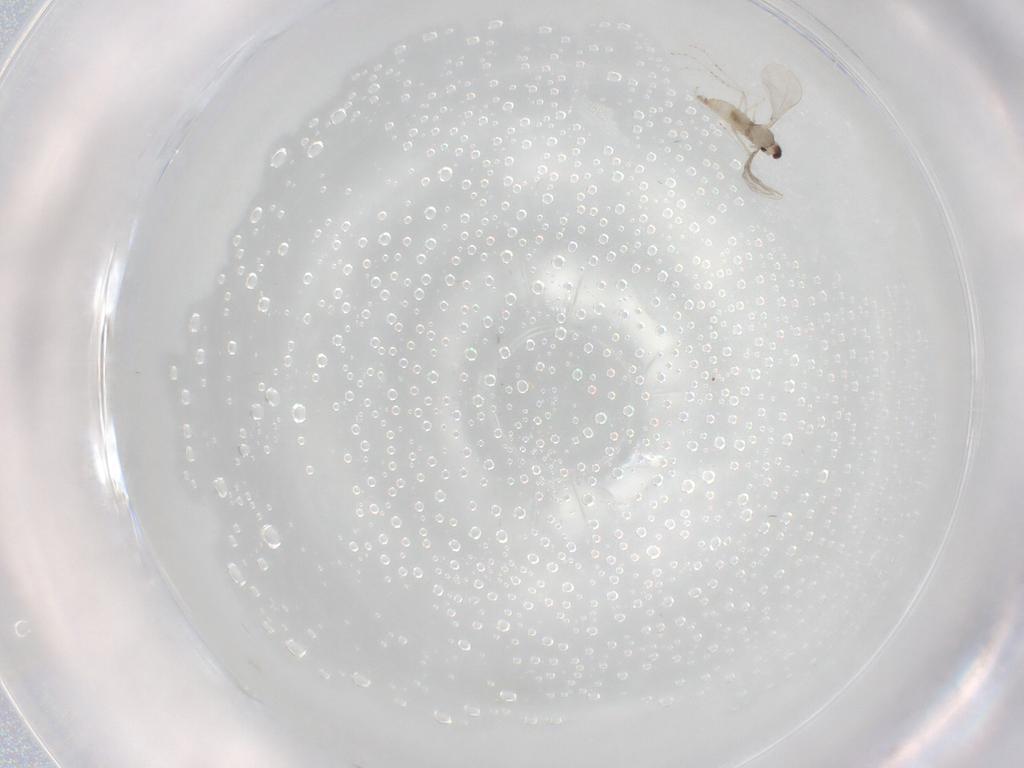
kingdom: Animalia
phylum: Arthropoda
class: Insecta
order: Diptera
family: Cecidomyiidae
